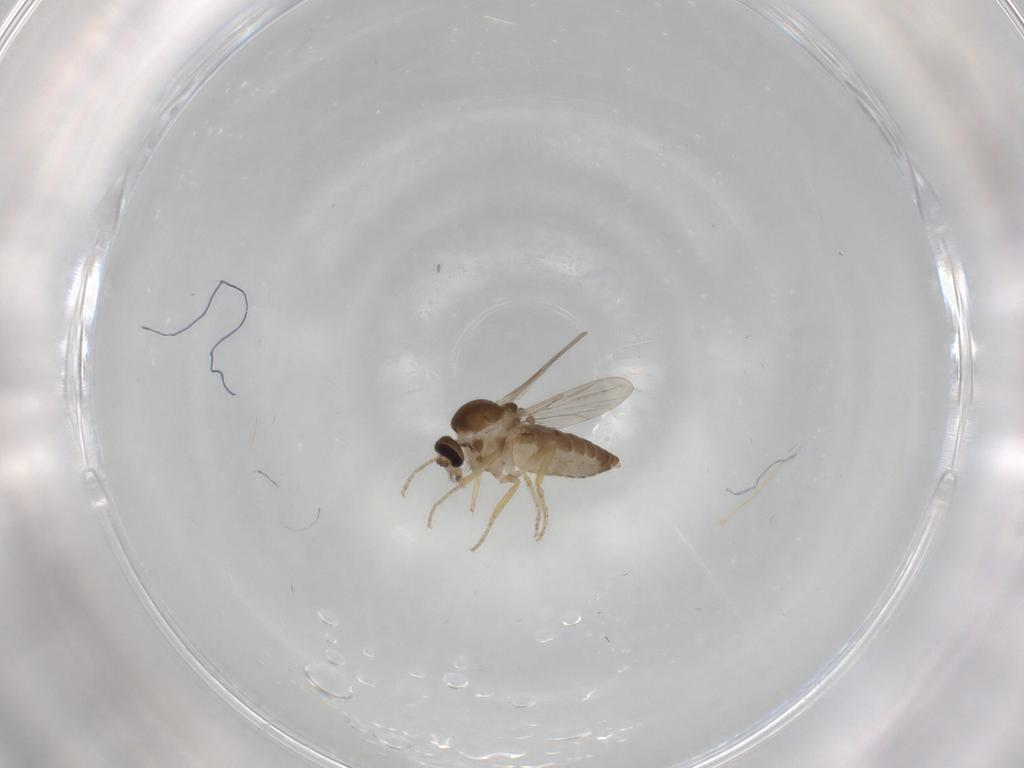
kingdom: Animalia
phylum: Arthropoda
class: Insecta
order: Diptera
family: Ceratopogonidae
